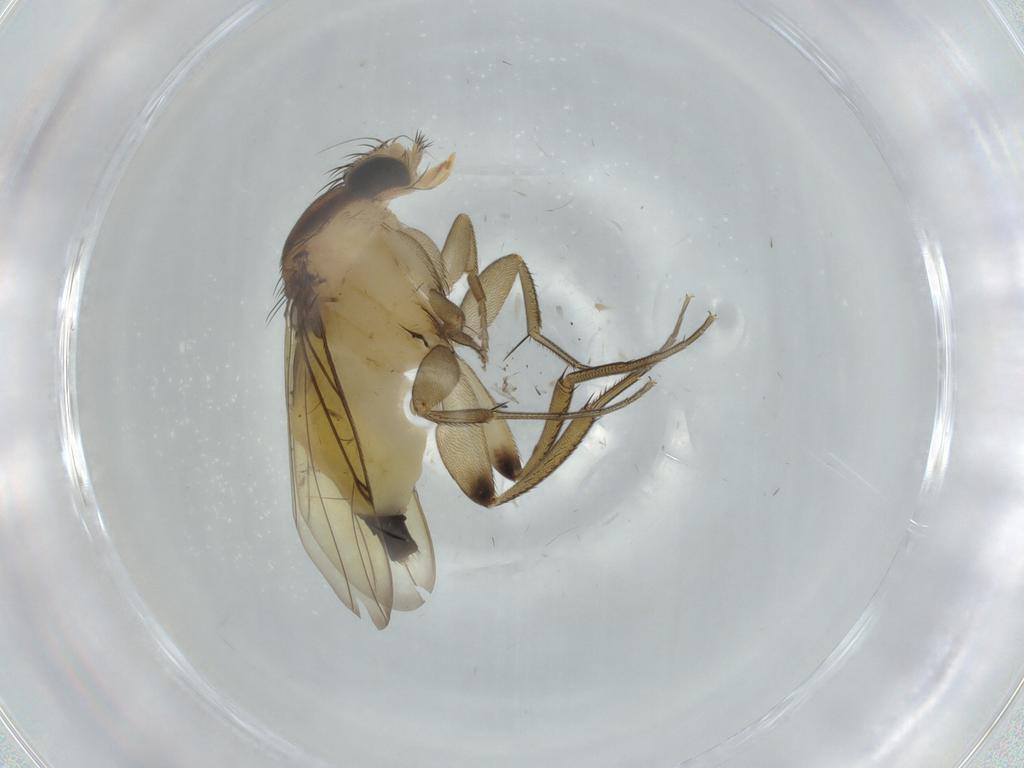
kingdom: Animalia
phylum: Arthropoda
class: Insecta
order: Diptera
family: Phoridae
